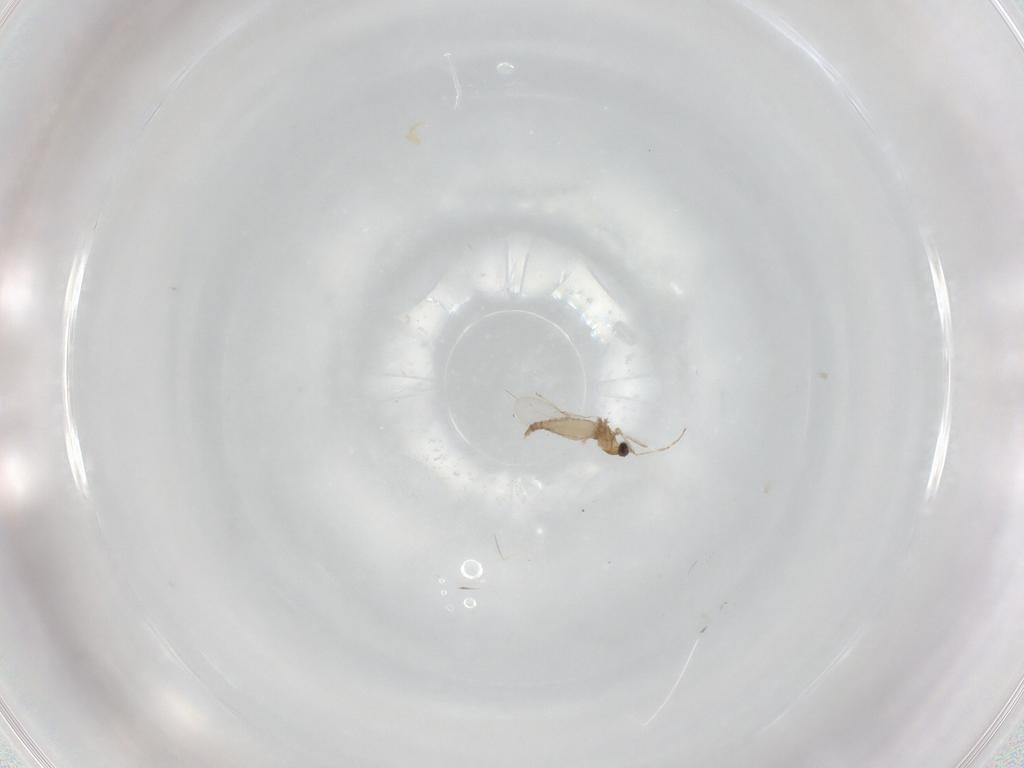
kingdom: Animalia
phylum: Arthropoda
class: Insecta
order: Diptera
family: Cecidomyiidae
